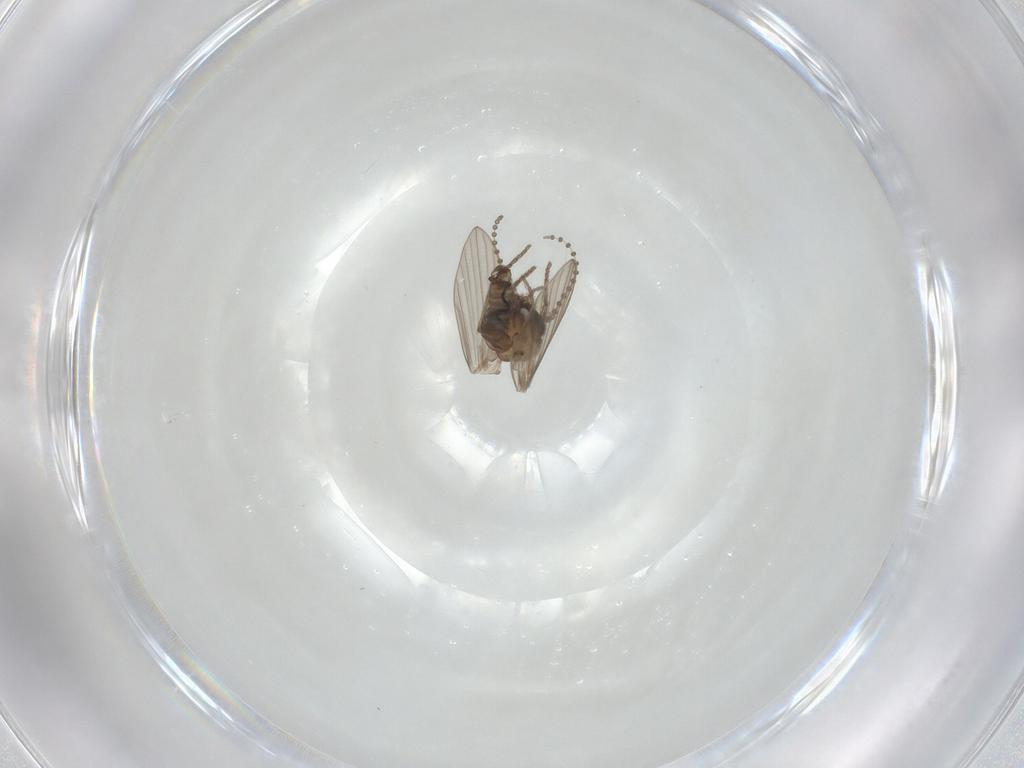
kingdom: Animalia
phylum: Arthropoda
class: Insecta
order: Diptera
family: Psychodidae
